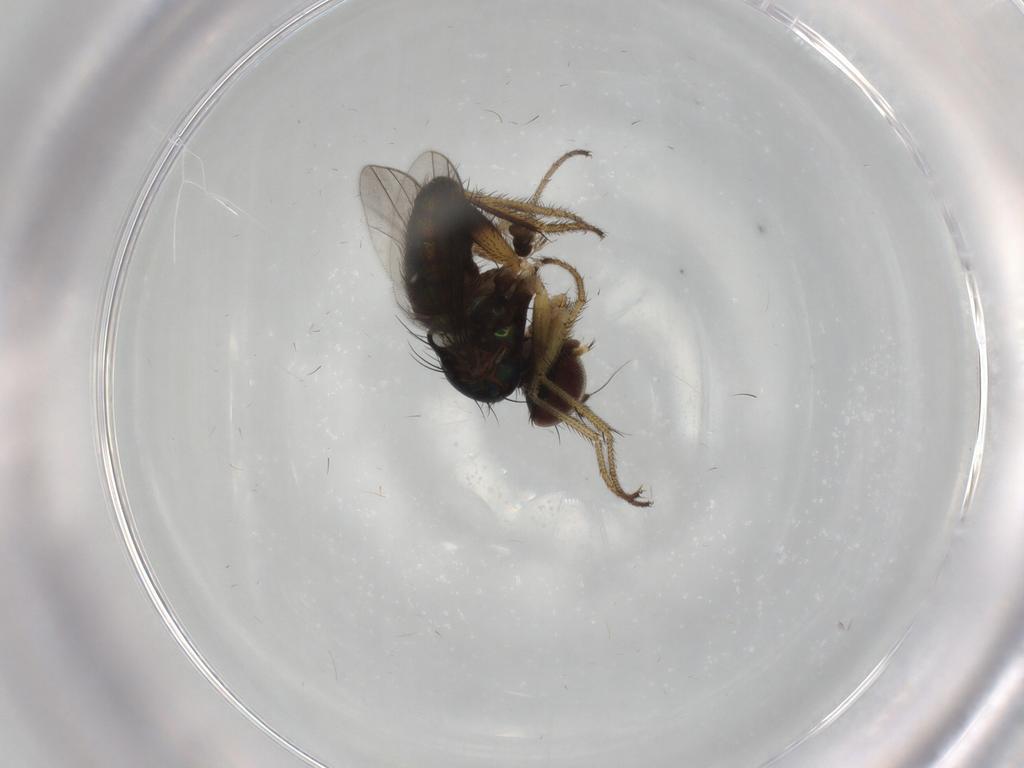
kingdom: Animalia
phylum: Arthropoda
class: Insecta
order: Diptera
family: Dolichopodidae
